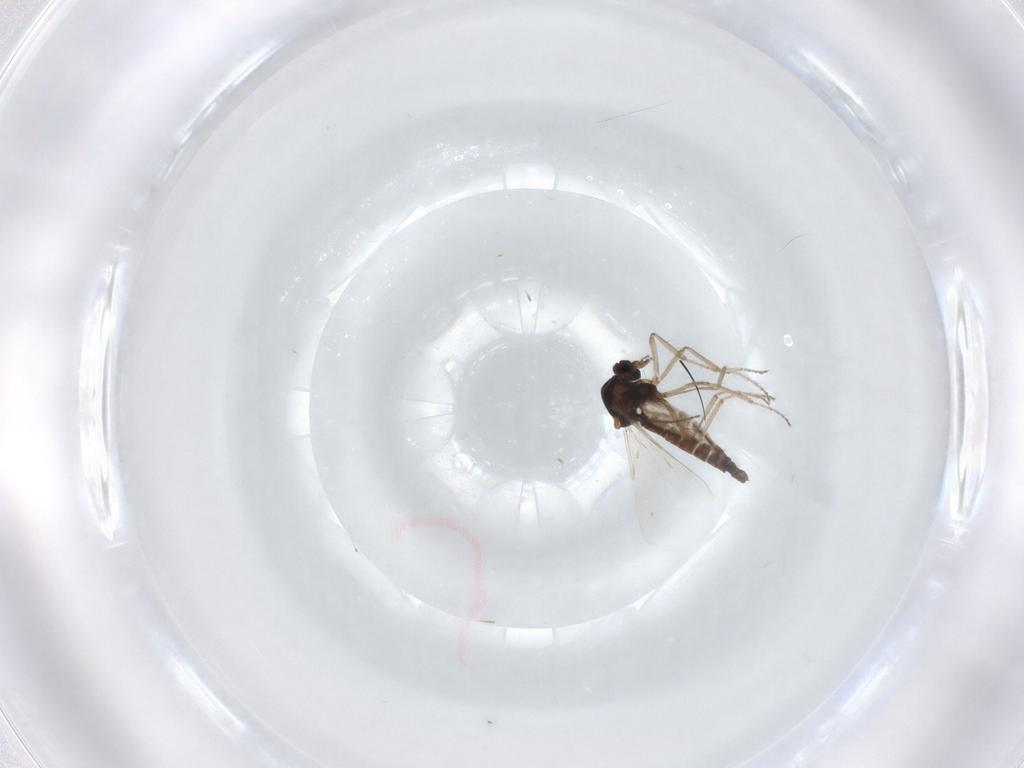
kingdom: Animalia
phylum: Arthropoda
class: Insecta
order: Diptera
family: Ceratopogonidae
